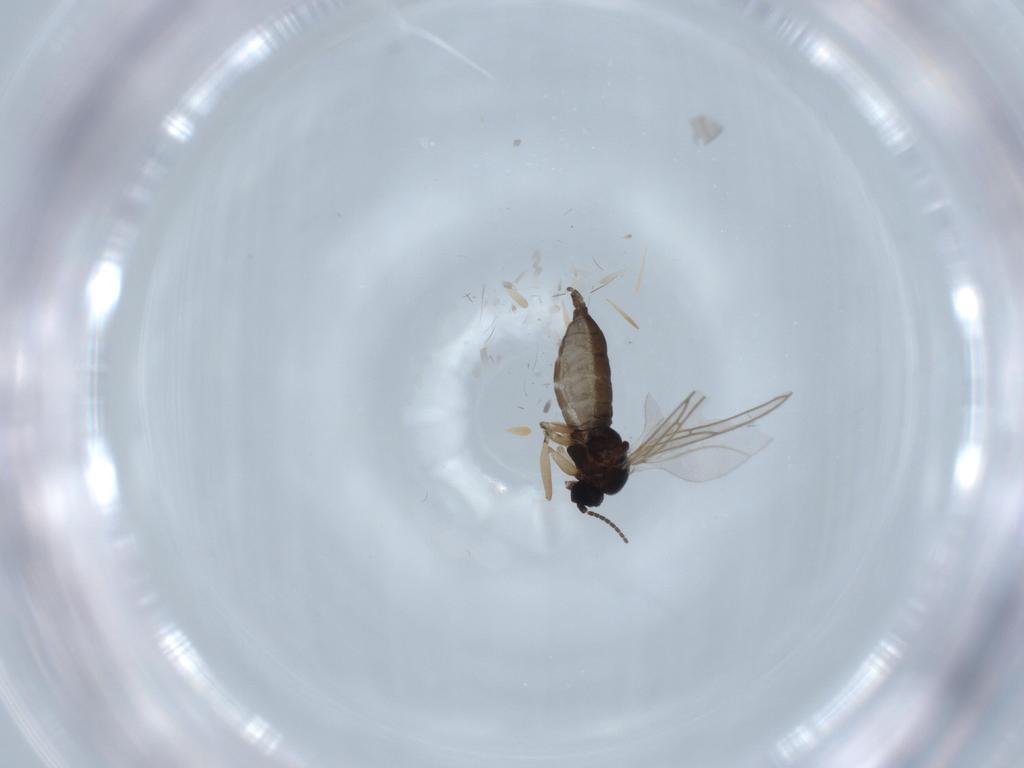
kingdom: Animalia
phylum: Arthropoda
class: Insecta
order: Diptera
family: Sciaridae
